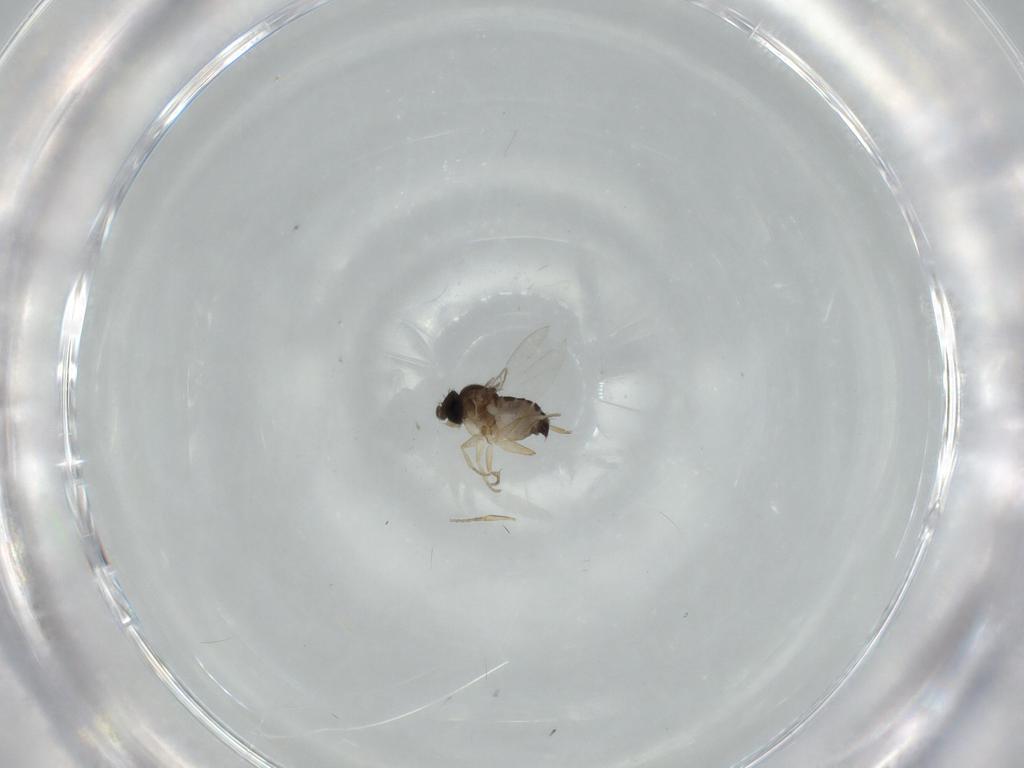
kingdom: Animalia
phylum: Arthropoda
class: Insecta
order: Diptera
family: Phoridae
